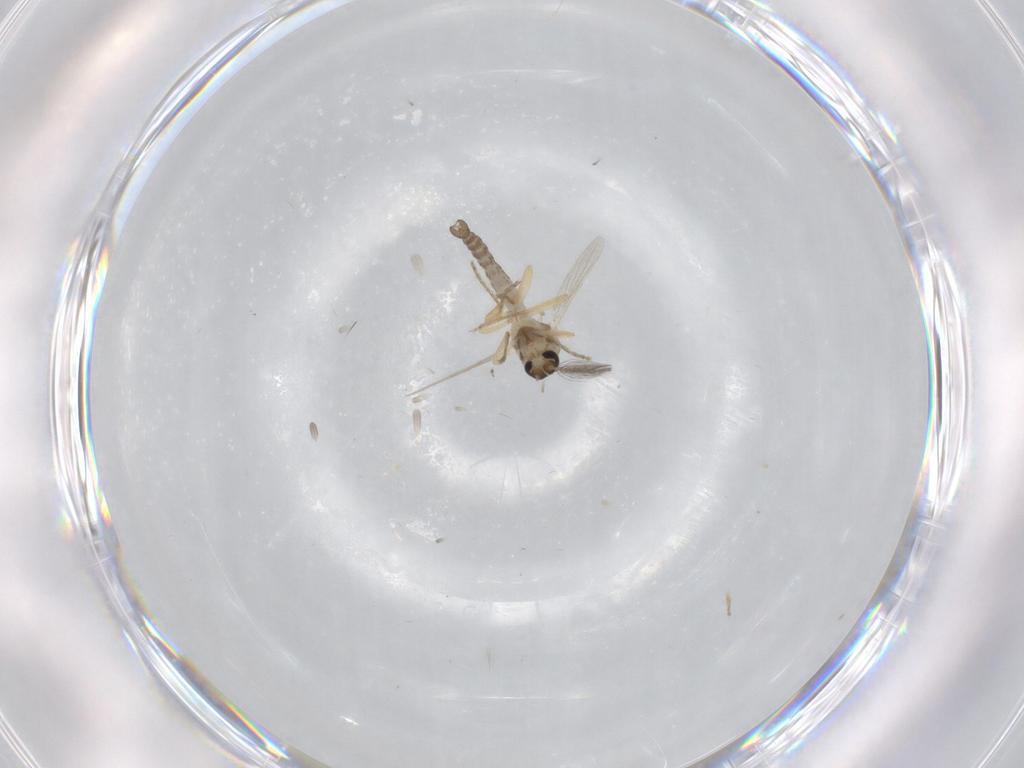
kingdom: Animalia
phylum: Arthropoda
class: Insecta
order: Diptera
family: Ceratopogonidae
